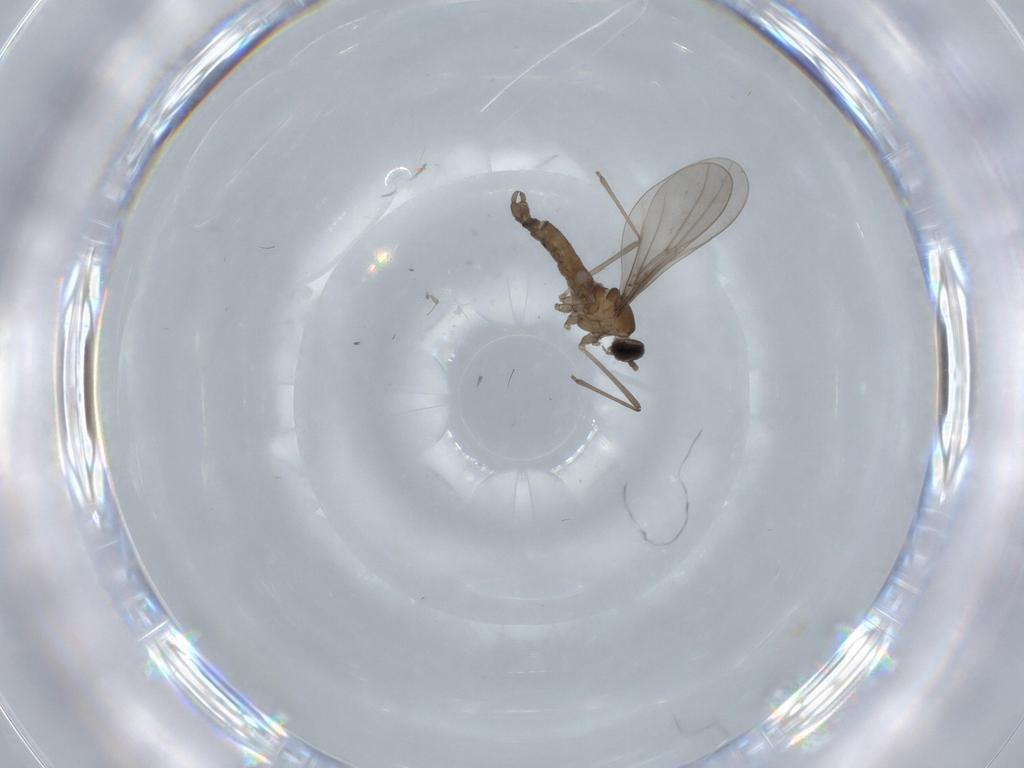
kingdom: Animalia
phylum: Arthropoda
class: Insecta
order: Diptera
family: Cecidomyiidae
